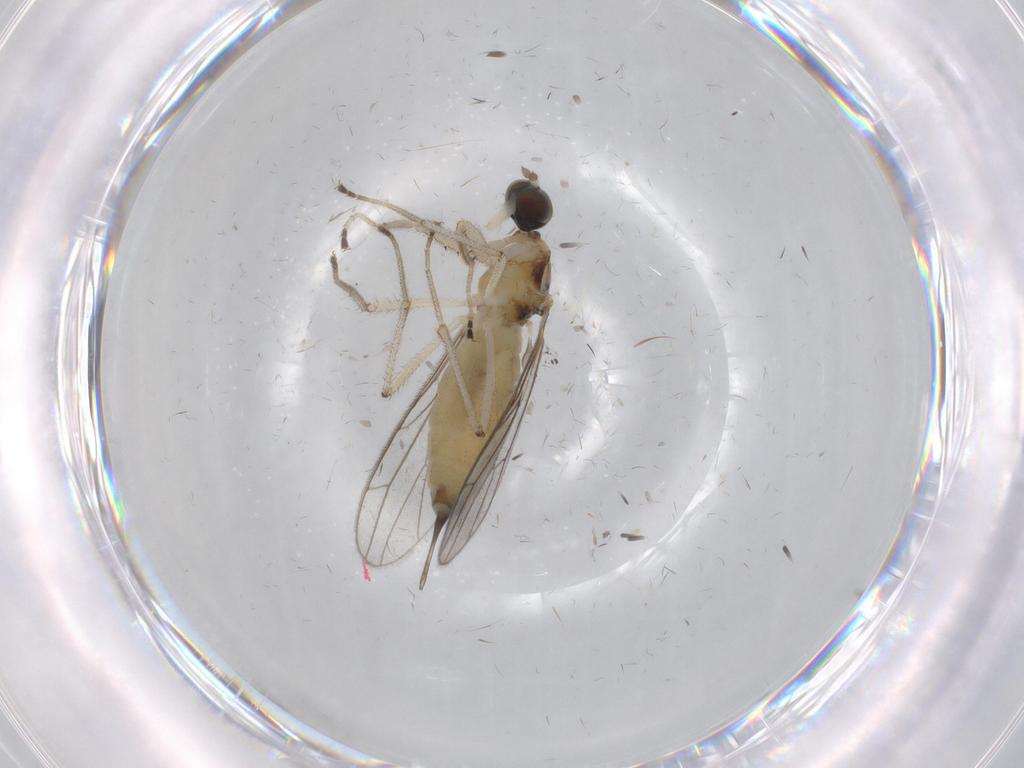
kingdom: Animalia
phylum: Arthropoda
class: Insecta
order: Diptera
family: Empididae
